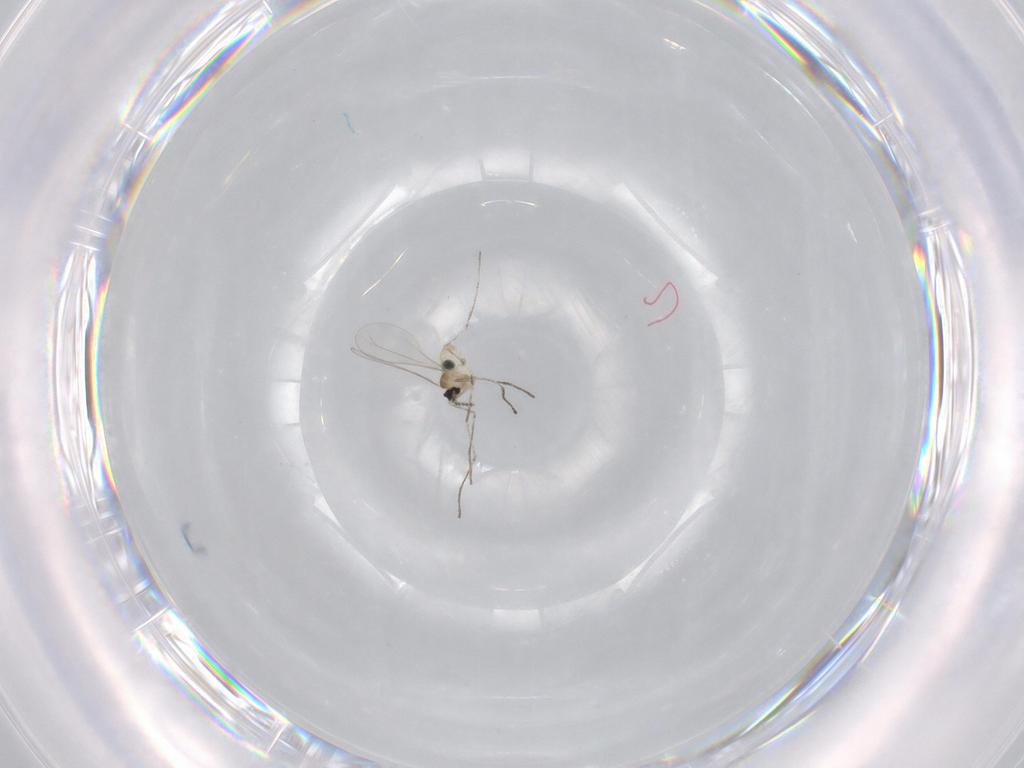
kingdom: Animalia
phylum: Arthropoda
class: Insecta
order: Diptera
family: Cecidomyiidae
